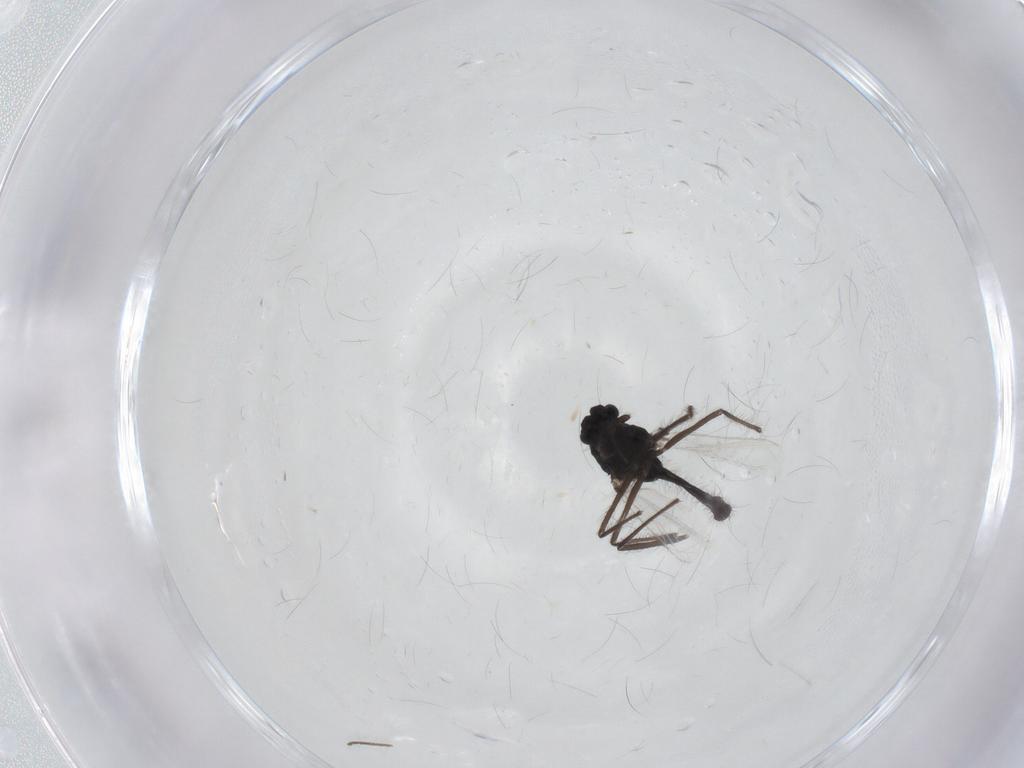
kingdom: Animalia
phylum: Arthropoda
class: Insecta
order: Diptera
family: Chironomidae
